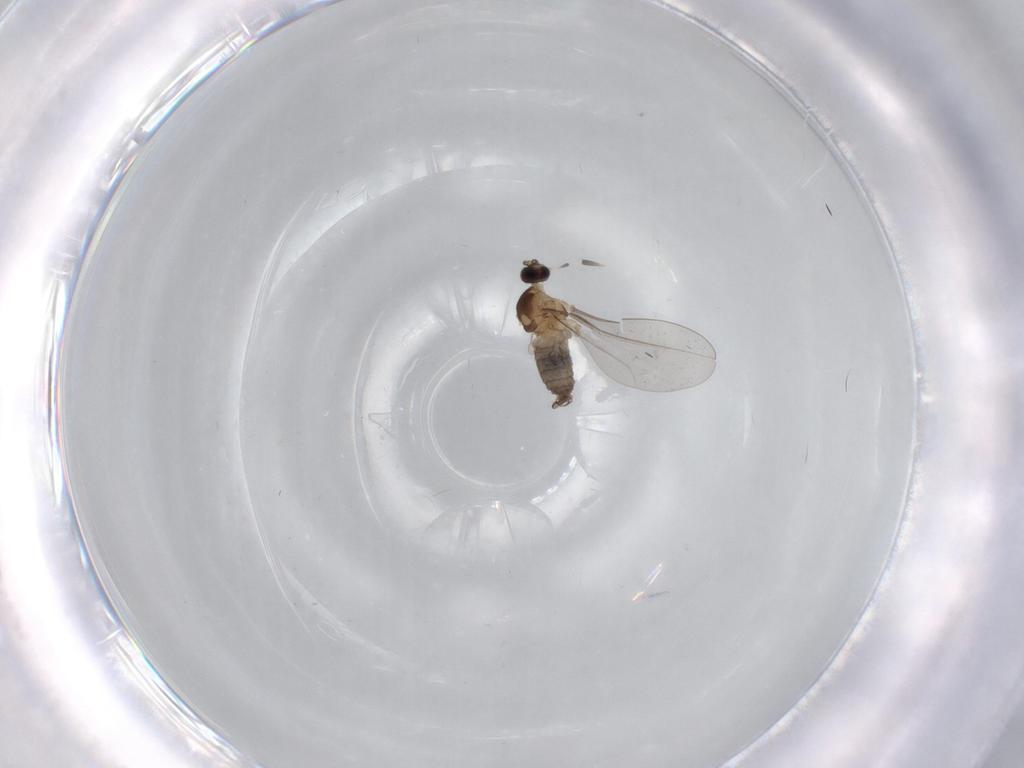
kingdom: Animalia
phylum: Arthropoda
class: Insecta
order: Diptera
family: Cecidomyiidae
